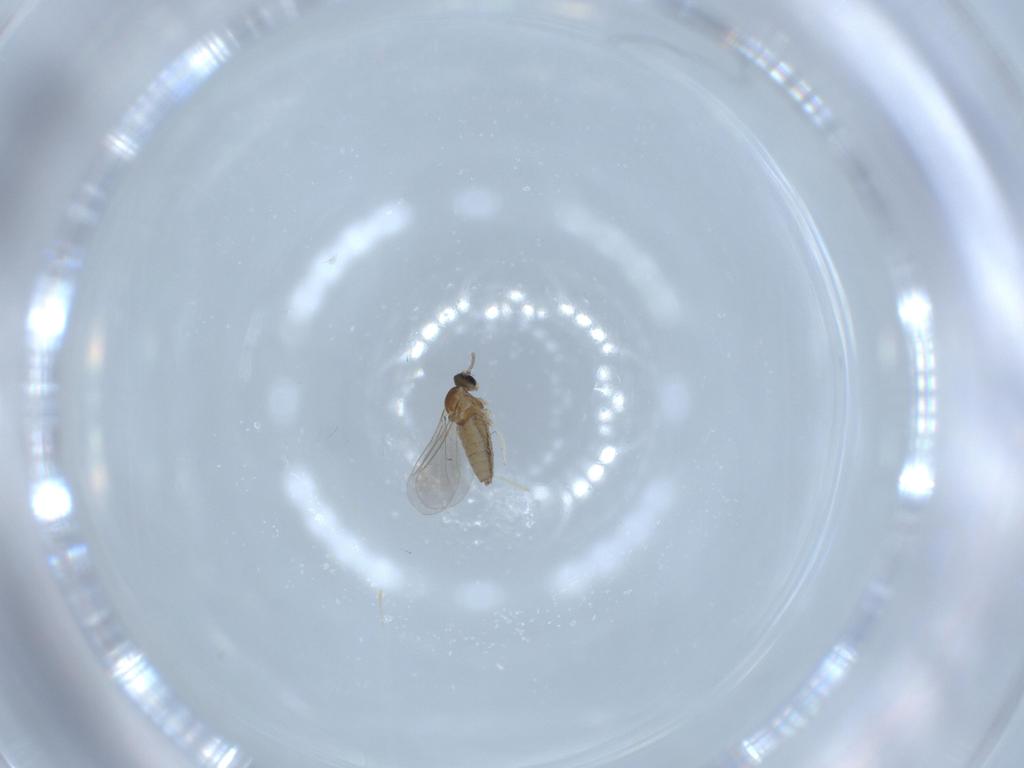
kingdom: Animalia
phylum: Arthropoda
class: Insecta
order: Diptera
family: Cecidomyiidae
